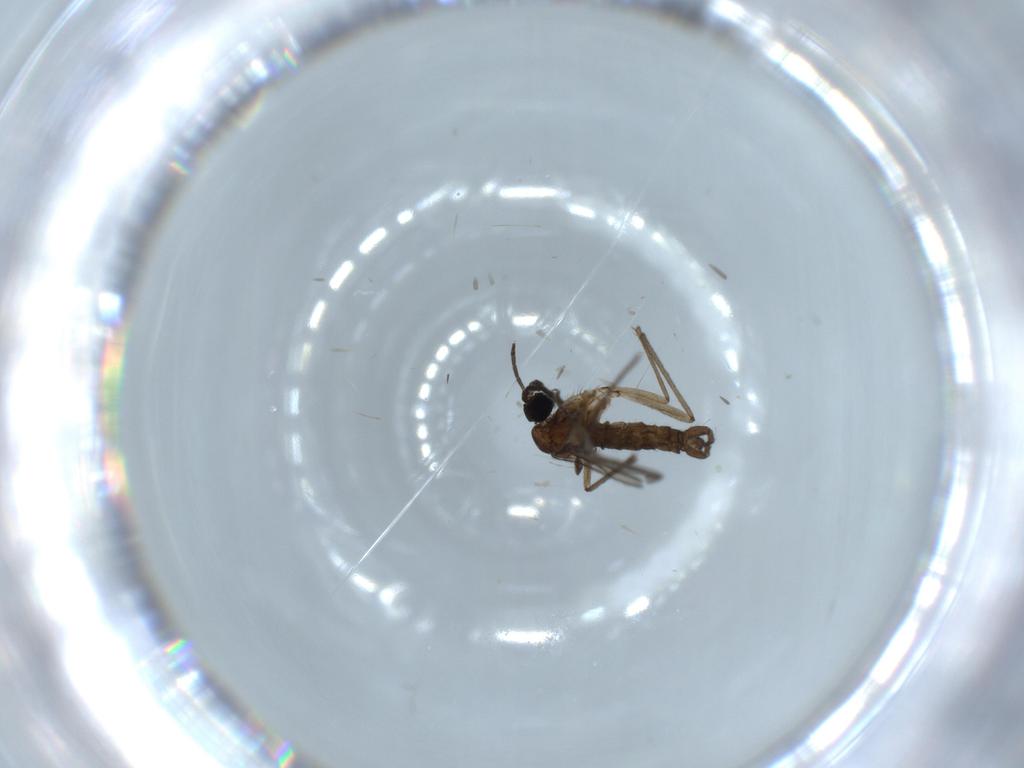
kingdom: Animalia
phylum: Arthropoda
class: Insecta
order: Diptera
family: Sciaridae
